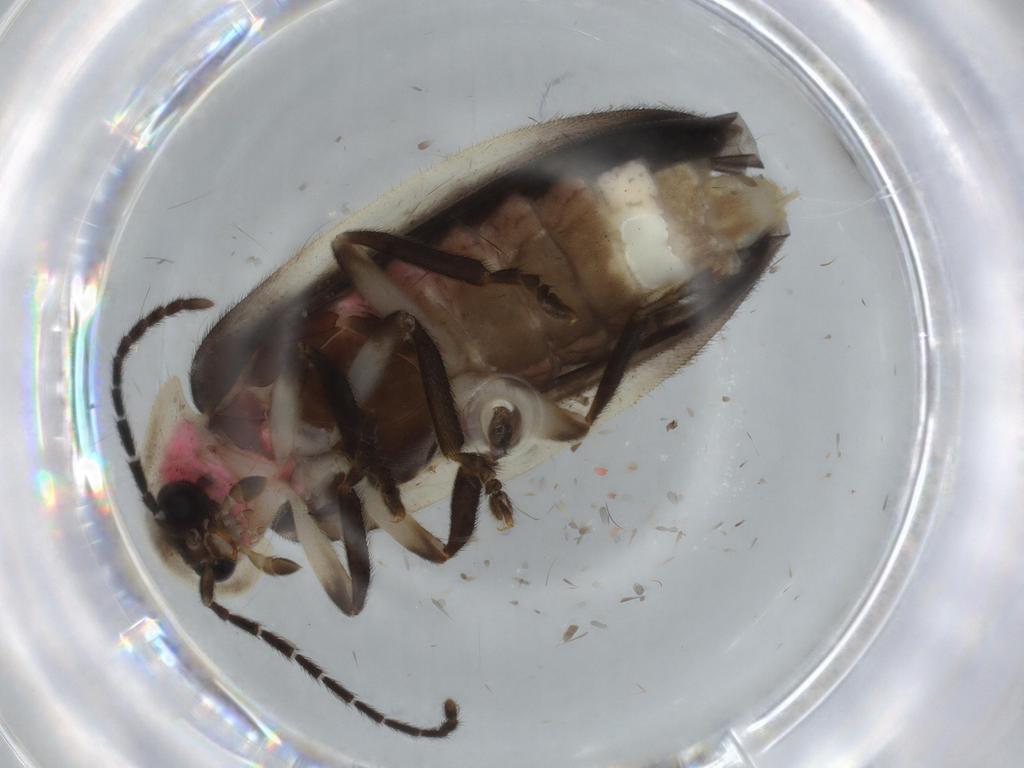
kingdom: Animalia
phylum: Arthropoda
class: Insecta
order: Coleoptera
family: Lampyridae
